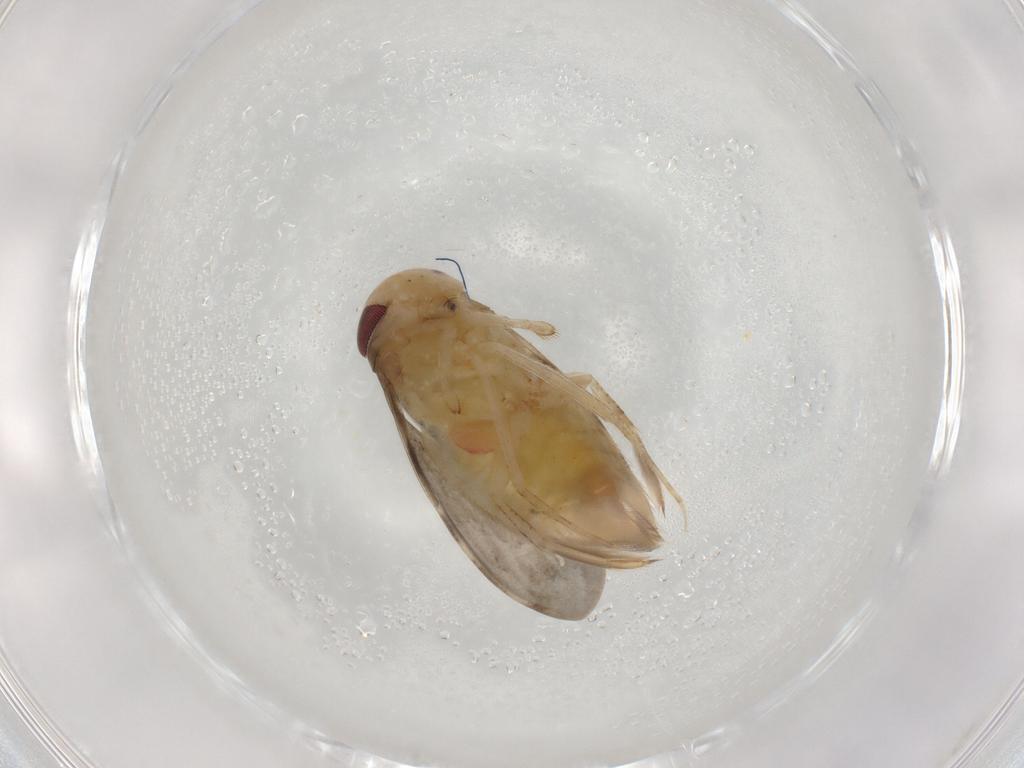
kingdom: Animalia
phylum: Arthropoda
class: Insecta
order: Hemiptera
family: Corixidae
